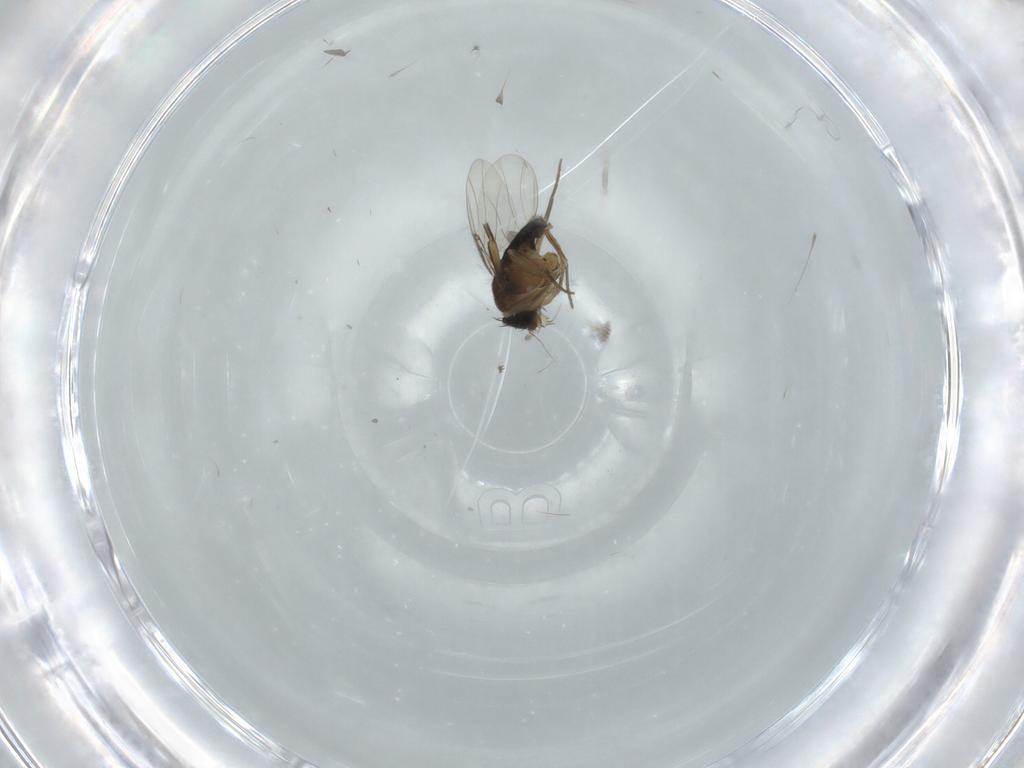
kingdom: Animalia
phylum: Arthropoda
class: Insecta
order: Diptera
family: Phoridae
